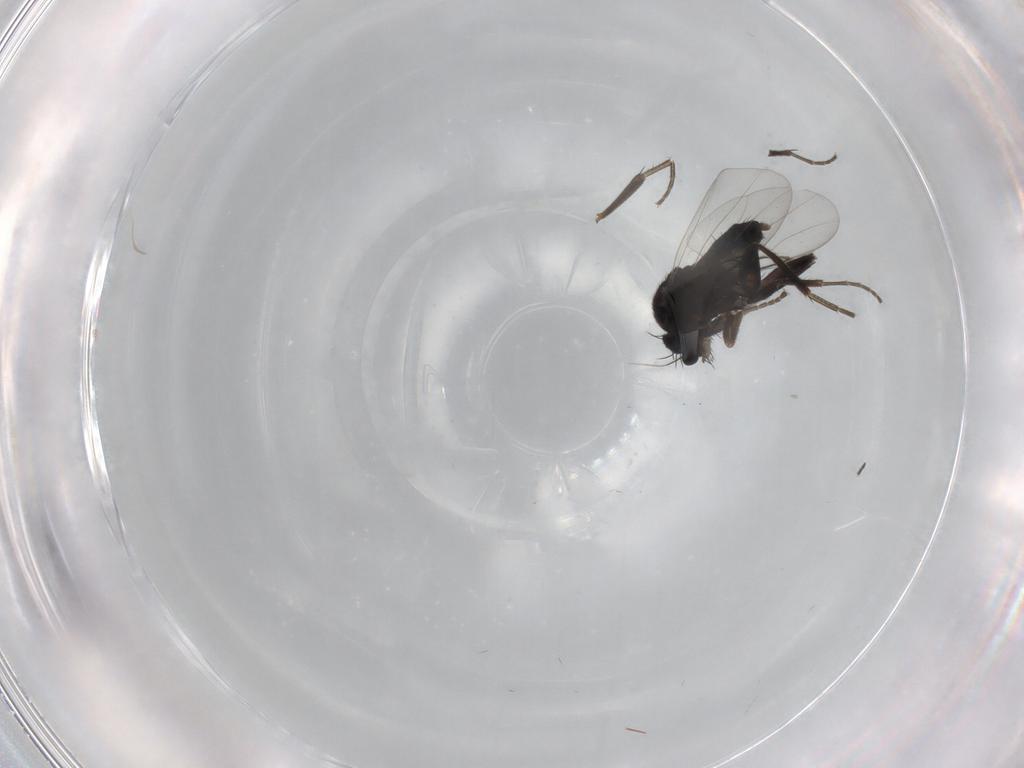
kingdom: Animalia
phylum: Arthropoda
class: Insecta
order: Diptera
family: Phoridae
